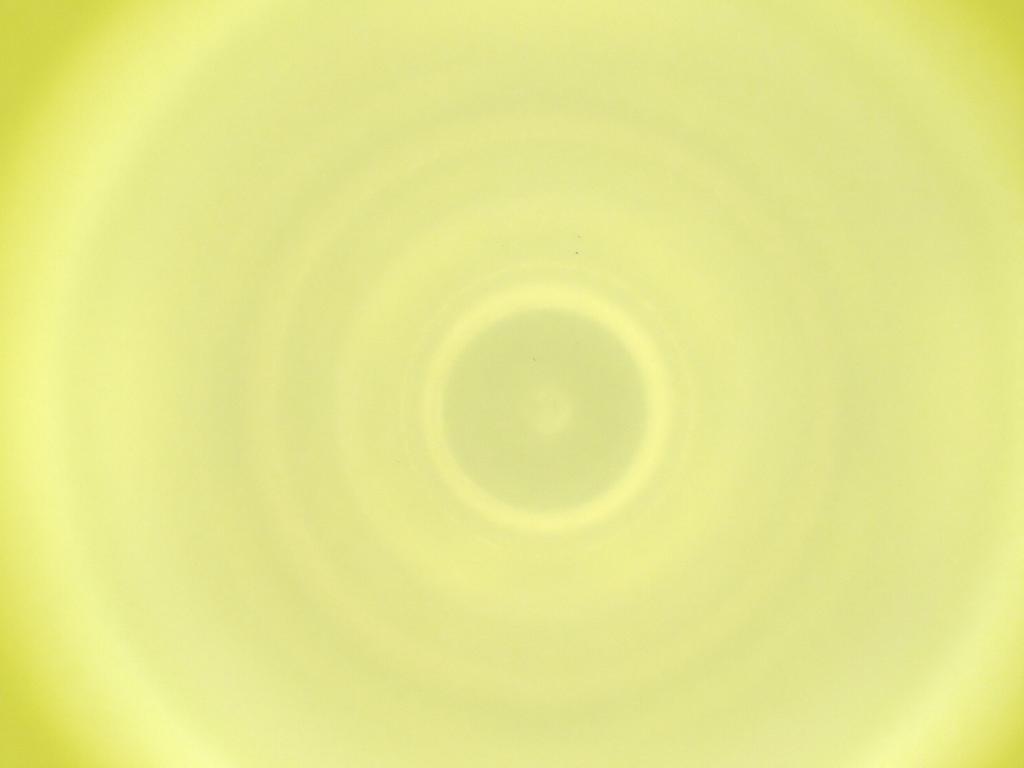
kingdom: Animalia
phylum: Arthropoda
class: Insecta
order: Diptera
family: Cecidomyiidae
